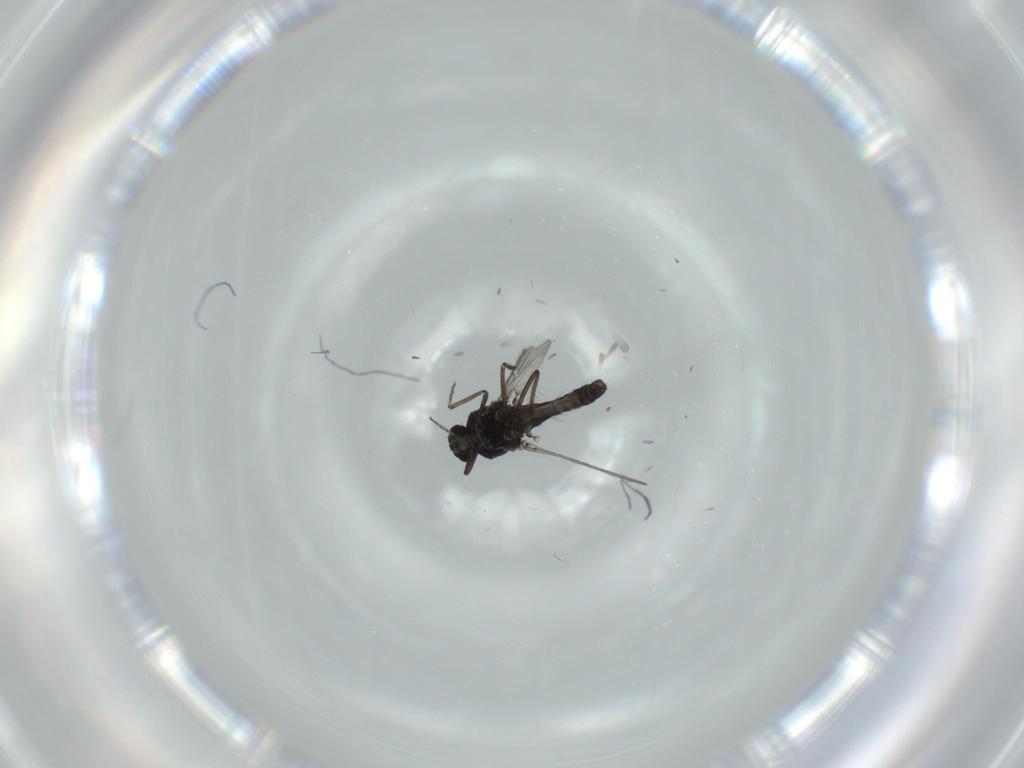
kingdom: Animalia
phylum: Arthropoda
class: Insecta
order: Diptera
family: Ceratopogonidae
